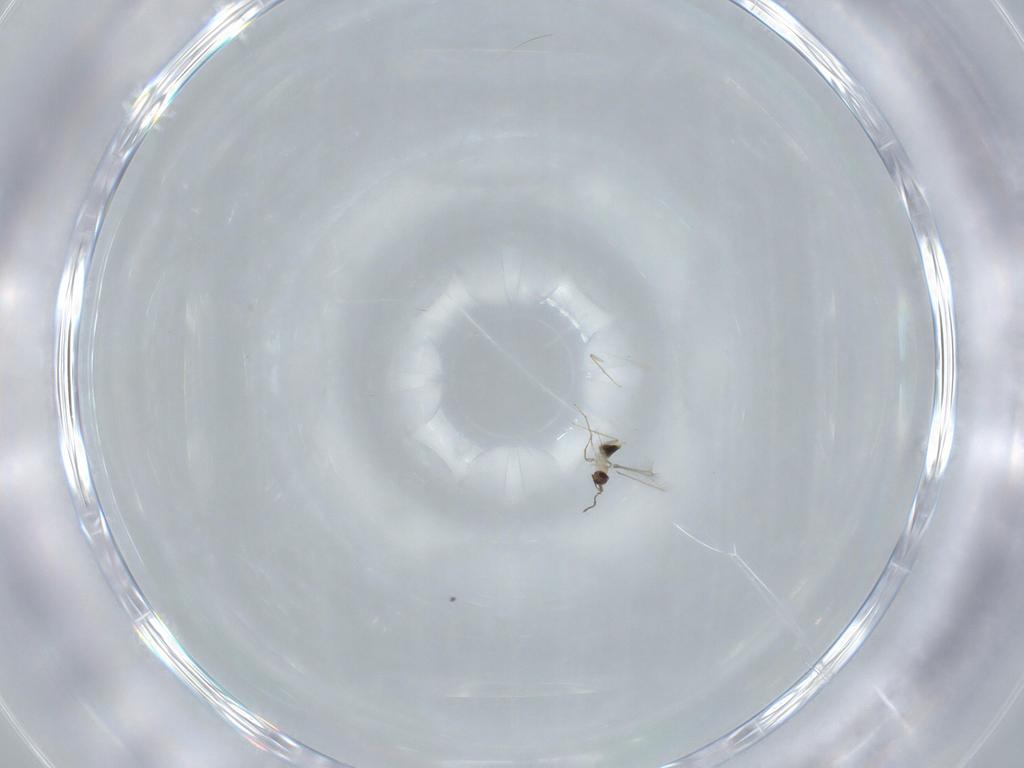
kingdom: Animalia
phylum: Arthropoda
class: Insecta
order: Hymenoptera
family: Mymaridae
